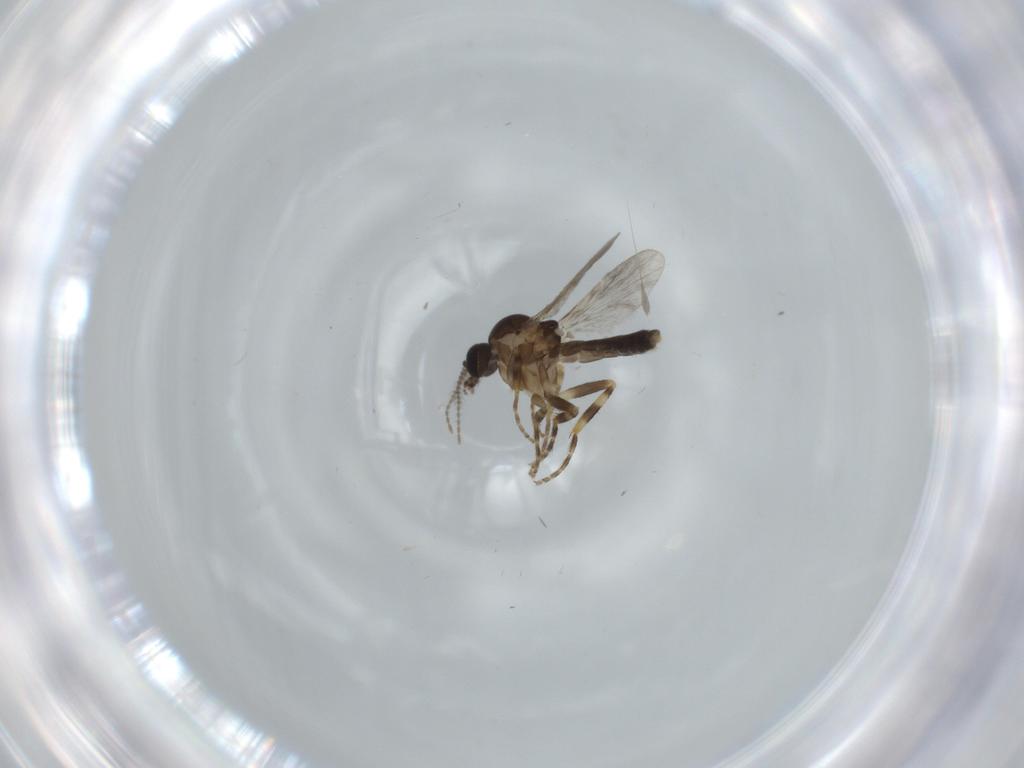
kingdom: Animalia
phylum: Arthropoda
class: Insecta
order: Diptera
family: Ceratopogonidae
